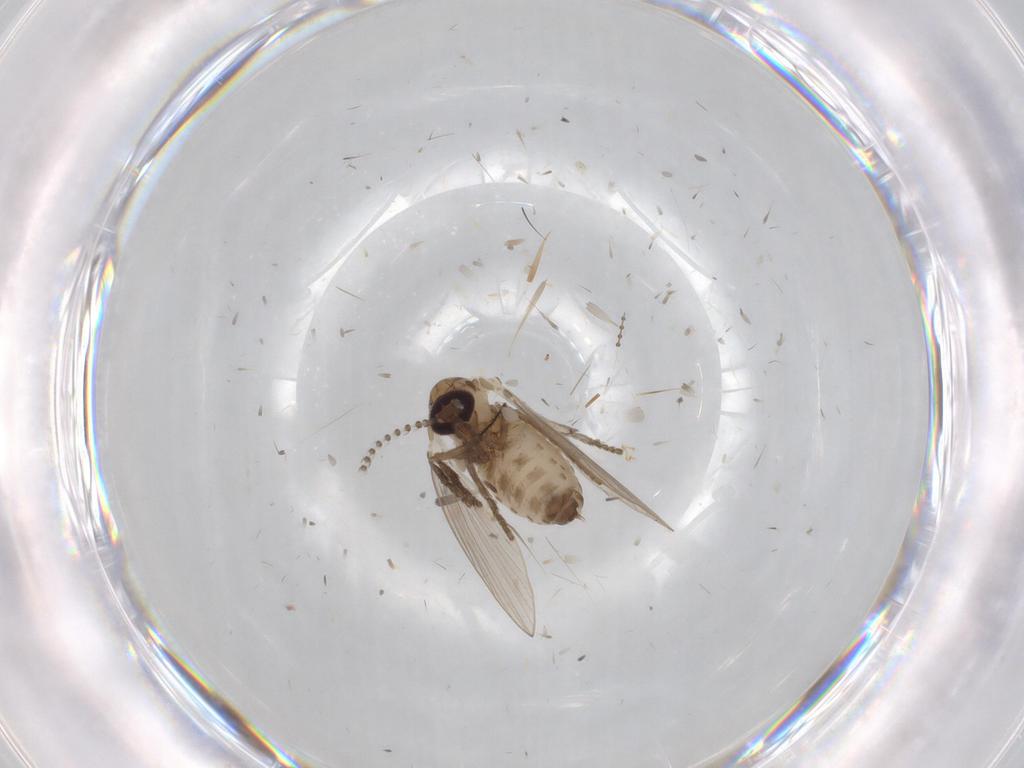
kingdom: Animalia
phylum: Arthropoda
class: Insecta
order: Diptera
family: Psychodidae
